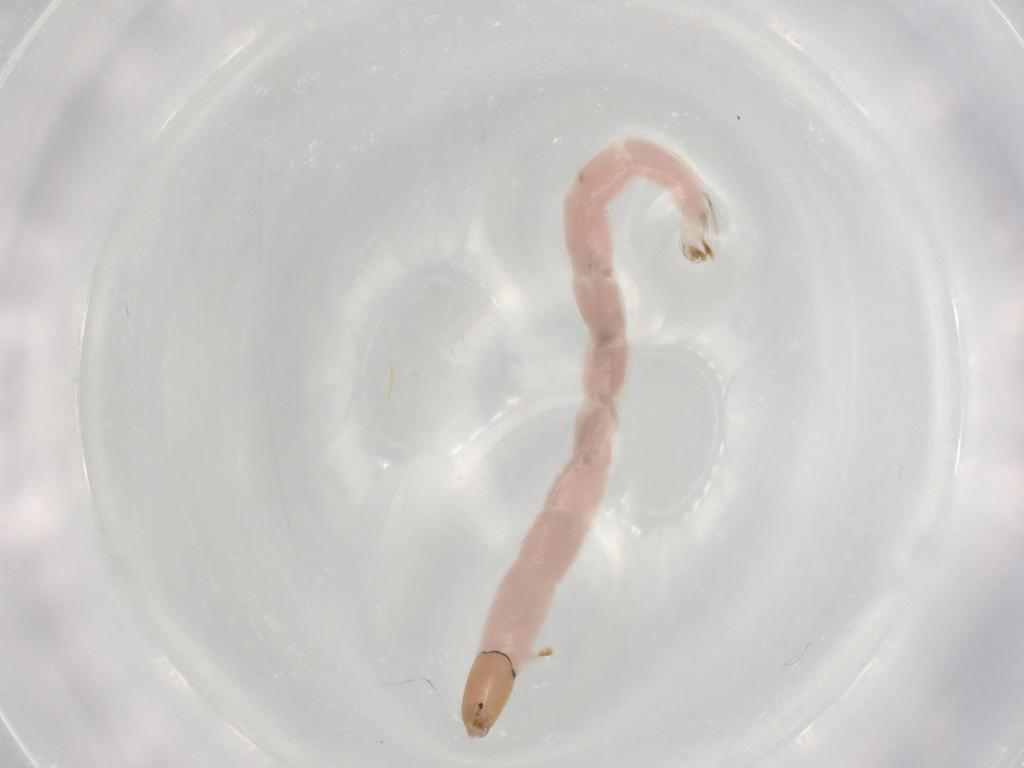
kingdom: Animalia
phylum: Arthropoda
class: Insecta
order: Diptera
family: Chironomidae
